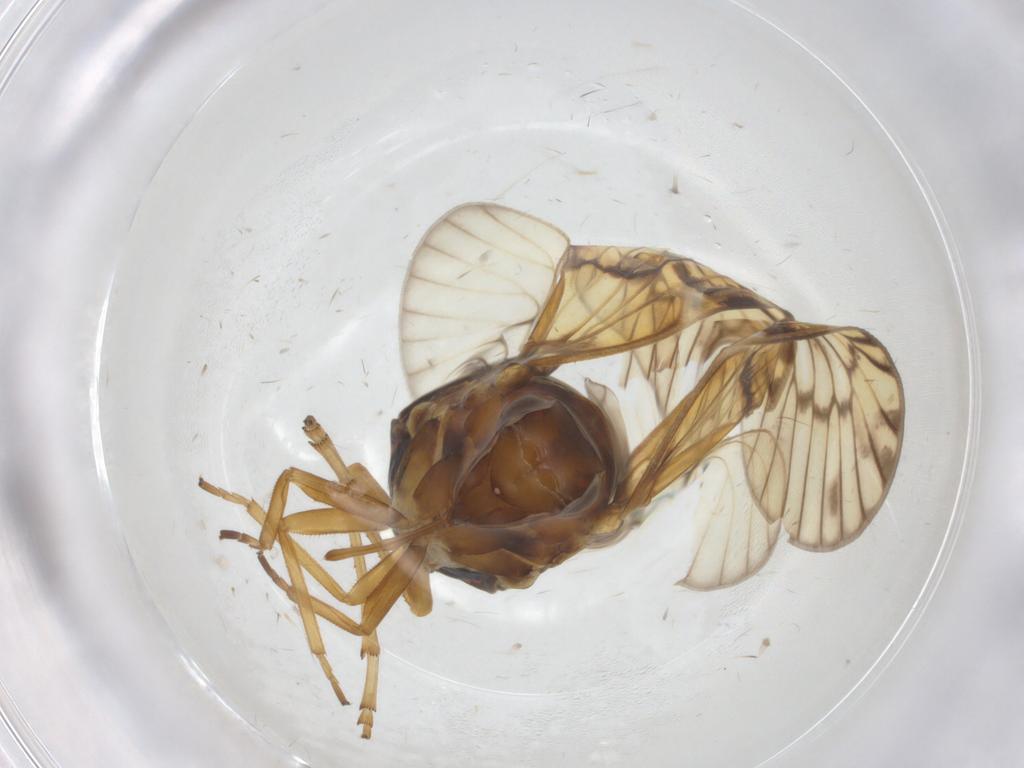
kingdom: Animalia
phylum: Arthropoda
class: Insecta
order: Hemiptera
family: Cixiidae
